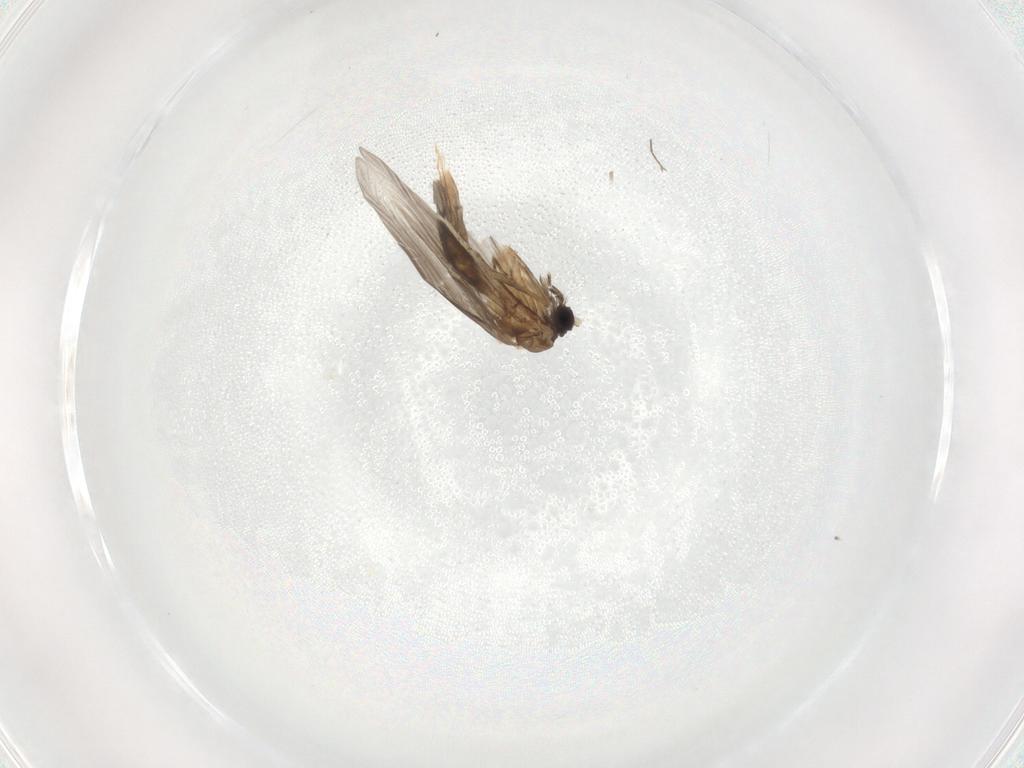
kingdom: Animalia
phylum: Arthropoda
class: Insecta
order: Trichoptera
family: Hydroptilidae
